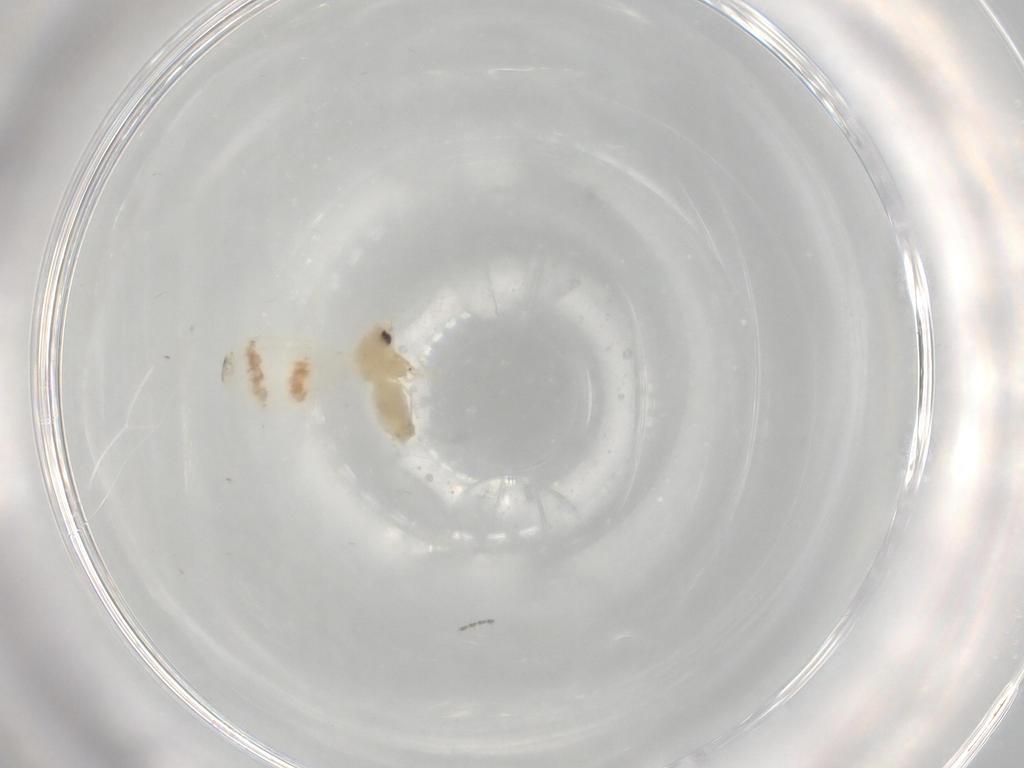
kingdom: Animalia
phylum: Arthropoda
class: Insecta
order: Hemiptera
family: Aleyrodidae
